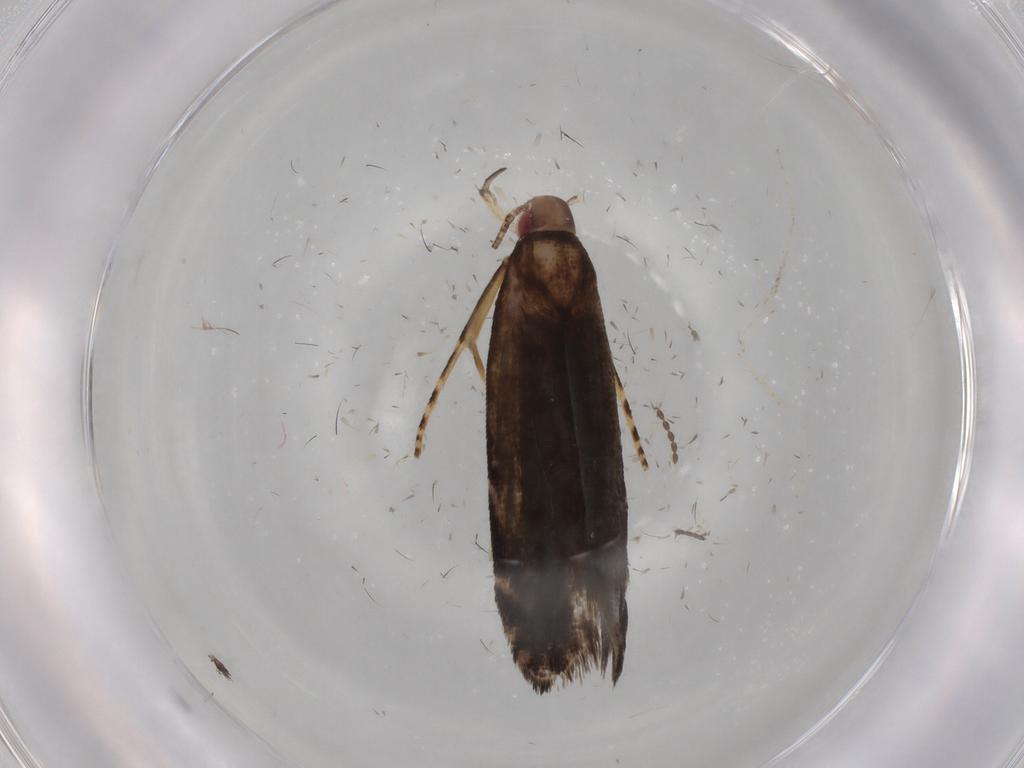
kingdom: Animalia
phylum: Arthropoda
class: Insecta
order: Lepidoptera
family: Gelechiidae
